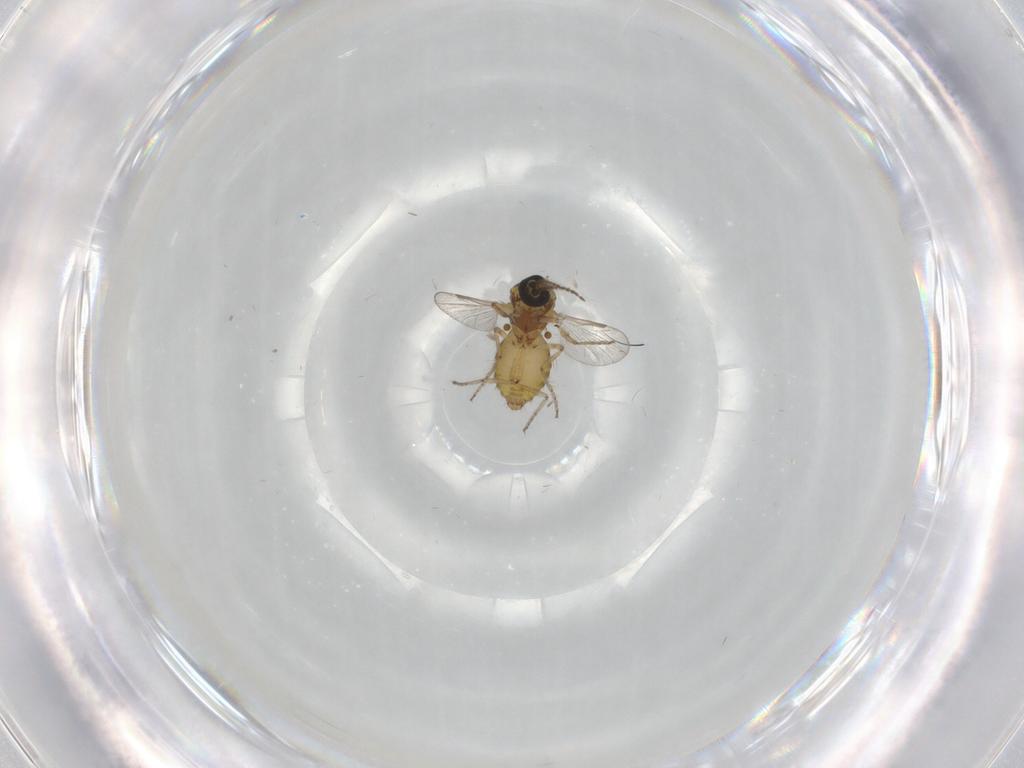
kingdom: Animalia
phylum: Arthropoda
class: Insecta
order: Diptera
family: Ceratopogonidae
